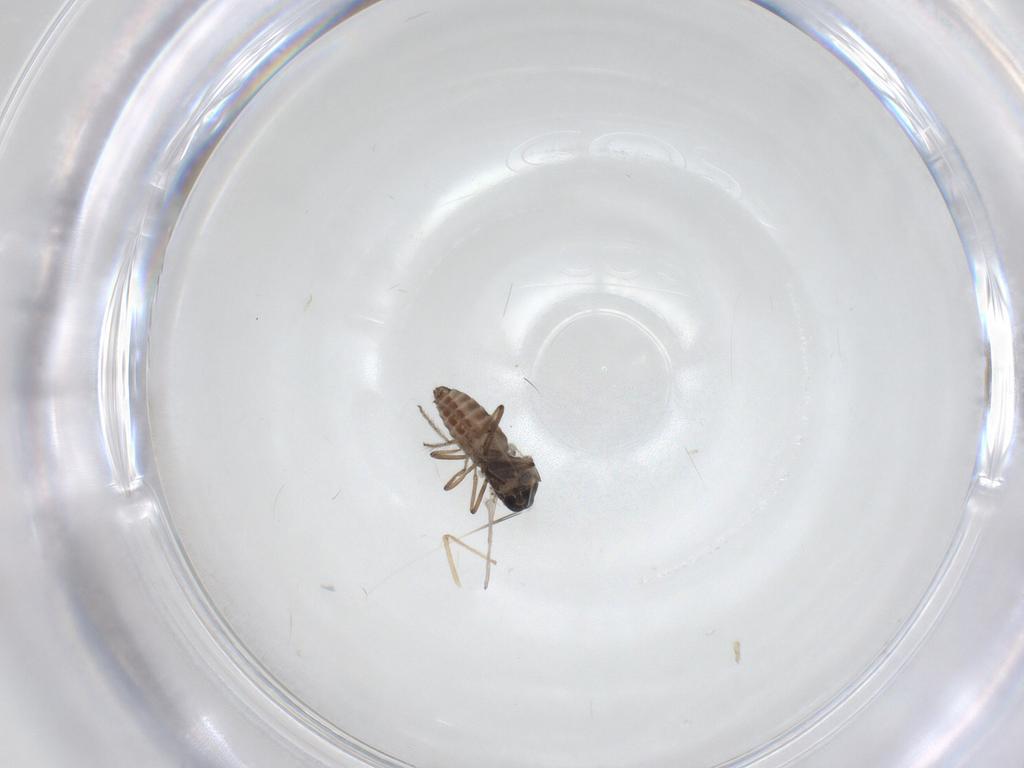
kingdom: Animalia
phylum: Arthropoda
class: Insecta
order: Diptera
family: Ceratopogonidae
